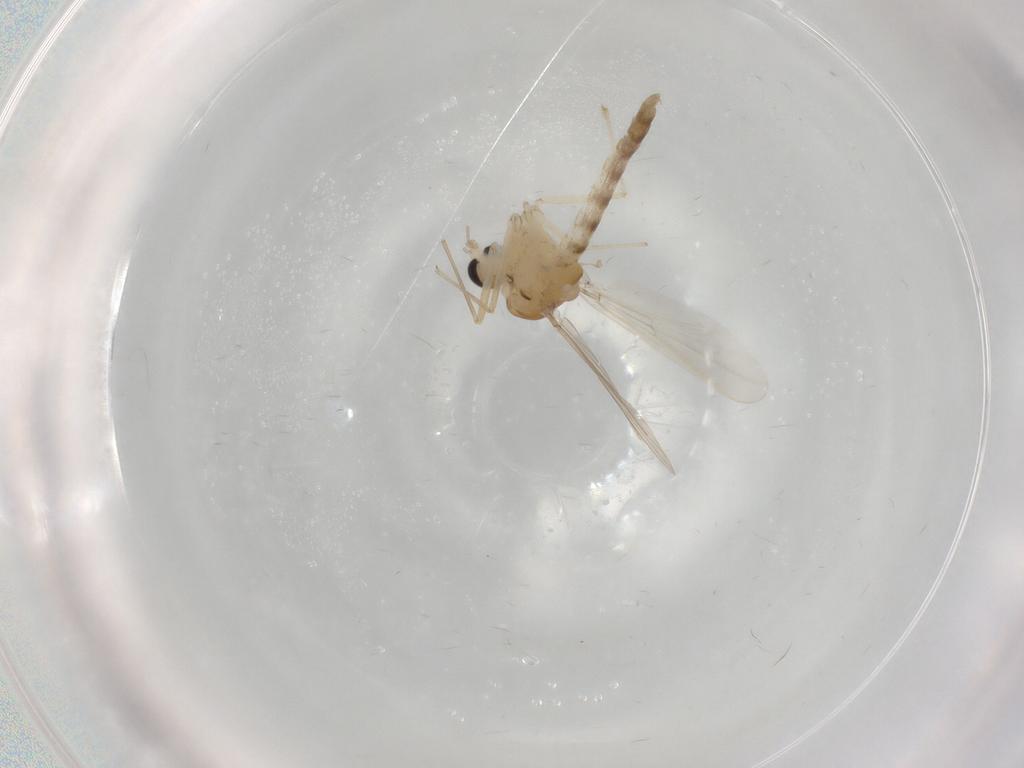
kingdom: Animalia
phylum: Arthropoda
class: Insecta
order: Diptera
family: Chironomidae
